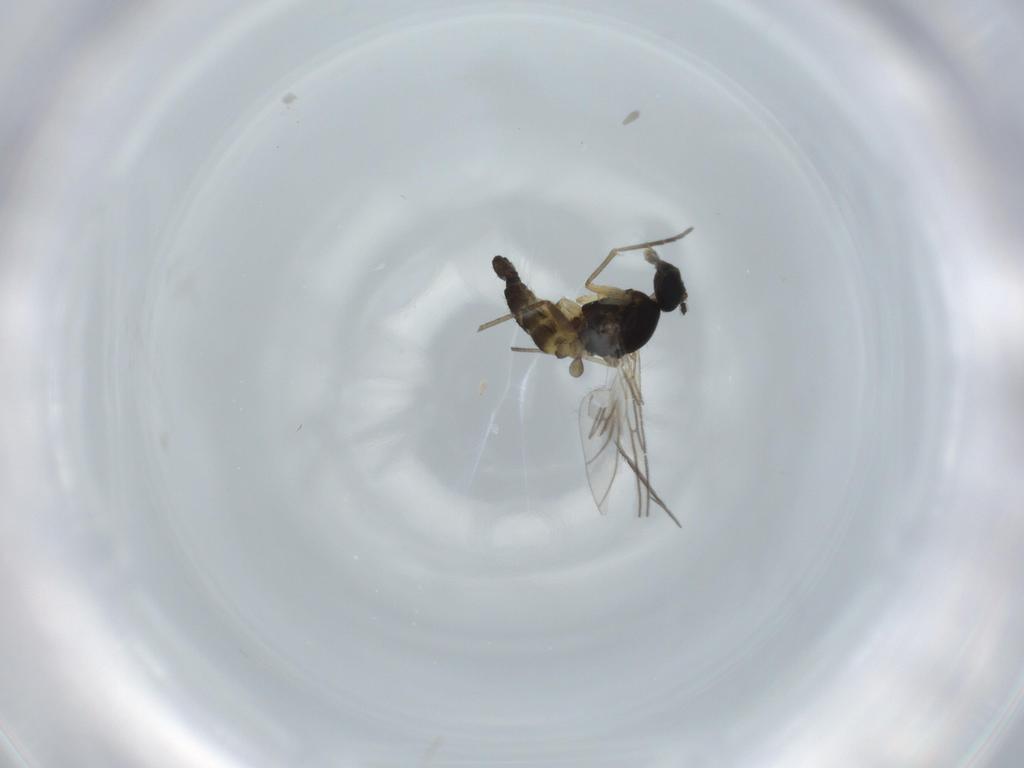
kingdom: Animalia
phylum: Arthropoda
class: Insecta
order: Diptera
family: Sciaridae
